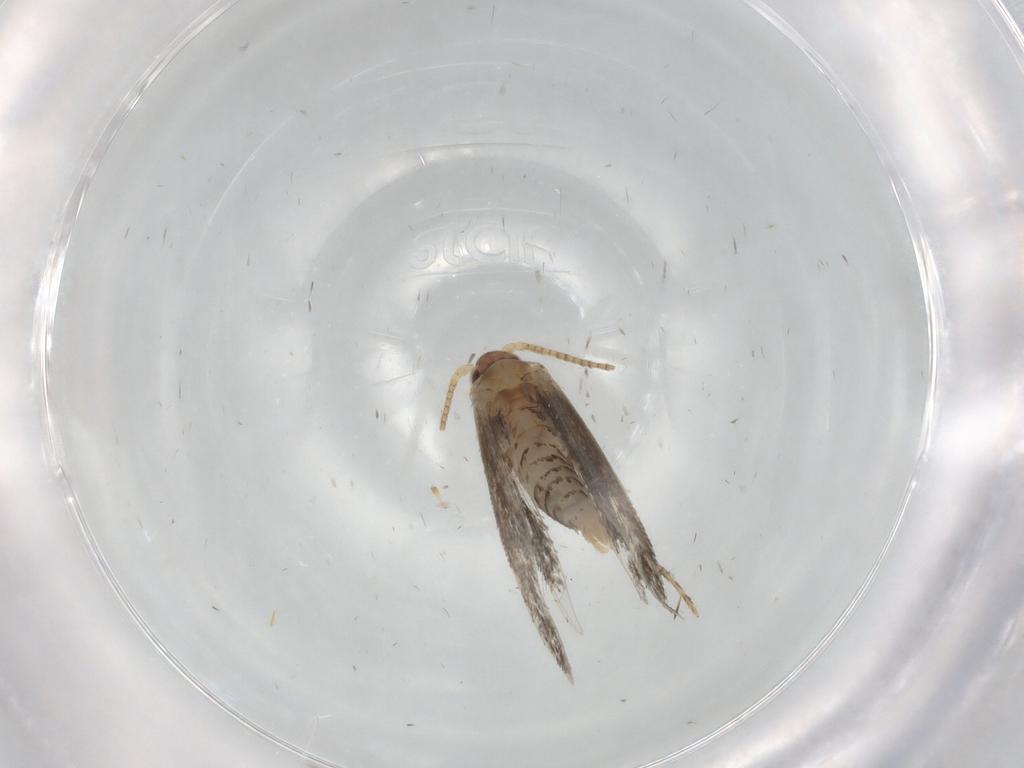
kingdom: Animalia
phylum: Arthropoda
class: Insecta
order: Lepidoptera
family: Tineidae
